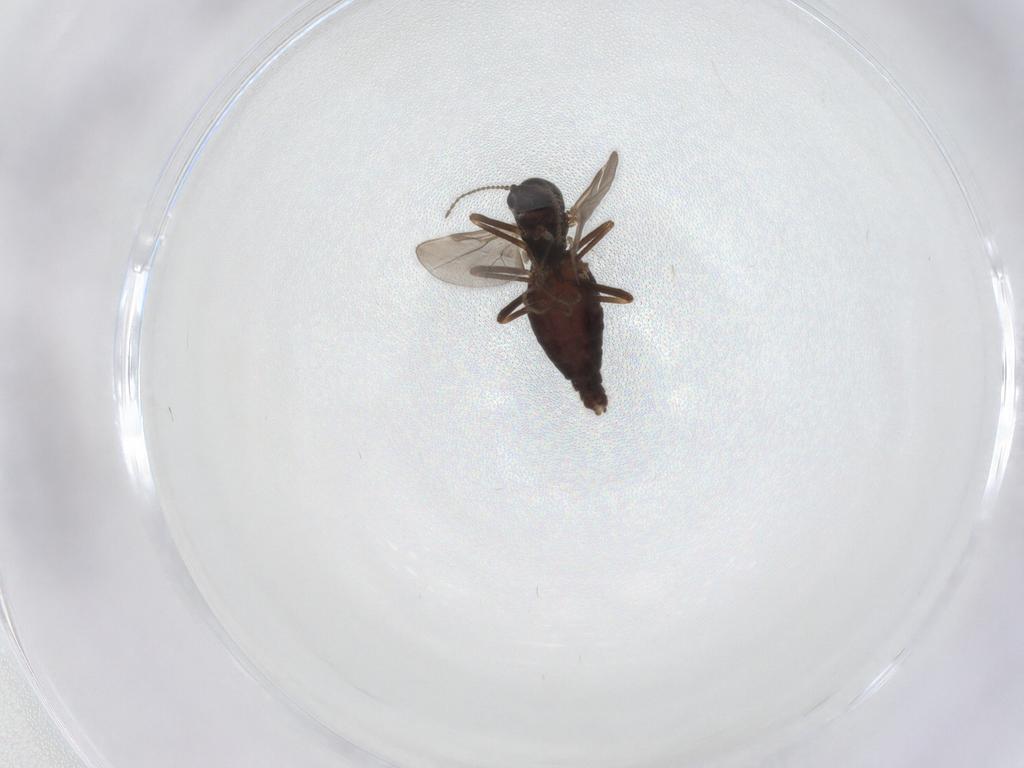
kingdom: Animalia
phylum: Arthropoda
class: Insecta
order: Diptera
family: Ceratopogonidae
